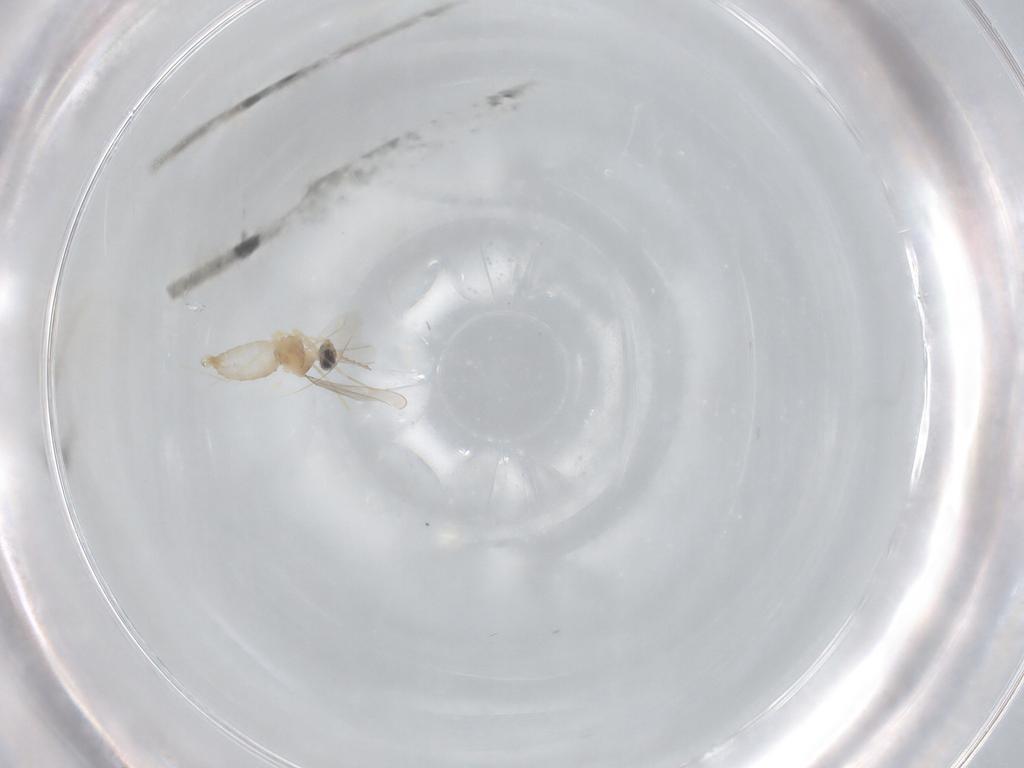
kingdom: Animalia
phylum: Arthropoda
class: Insecta
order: Diptera
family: Cecidomyiidae
